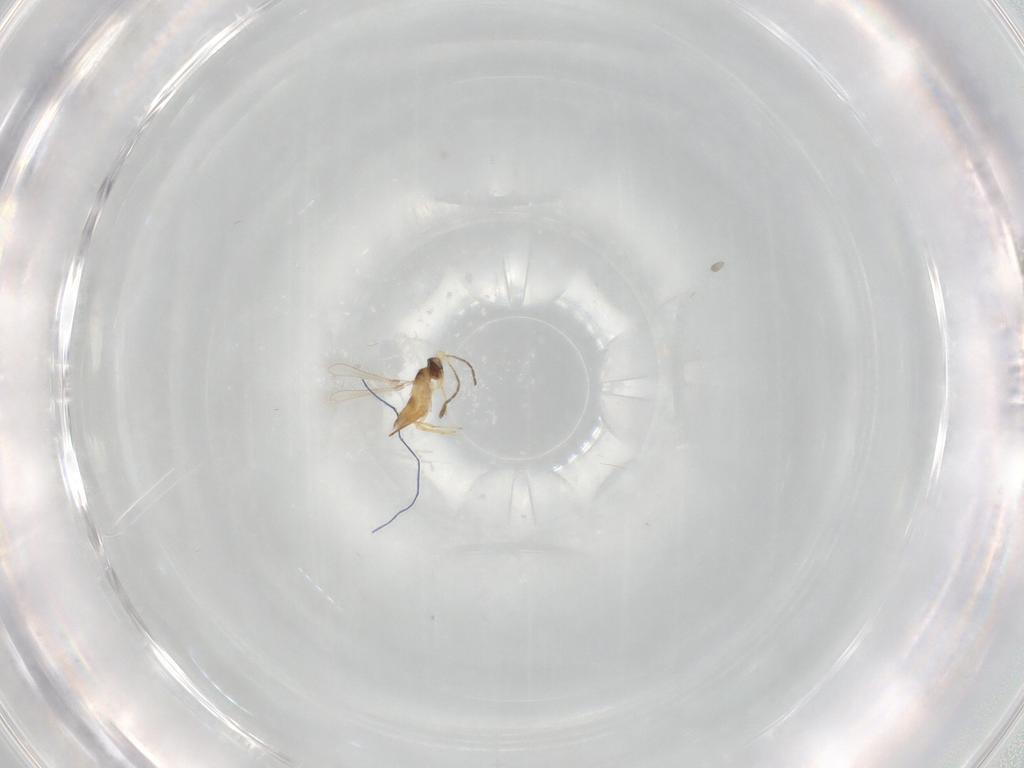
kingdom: Animalia
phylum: Arthropoda
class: Insecta
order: Hymenoptera
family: Mymaridae
